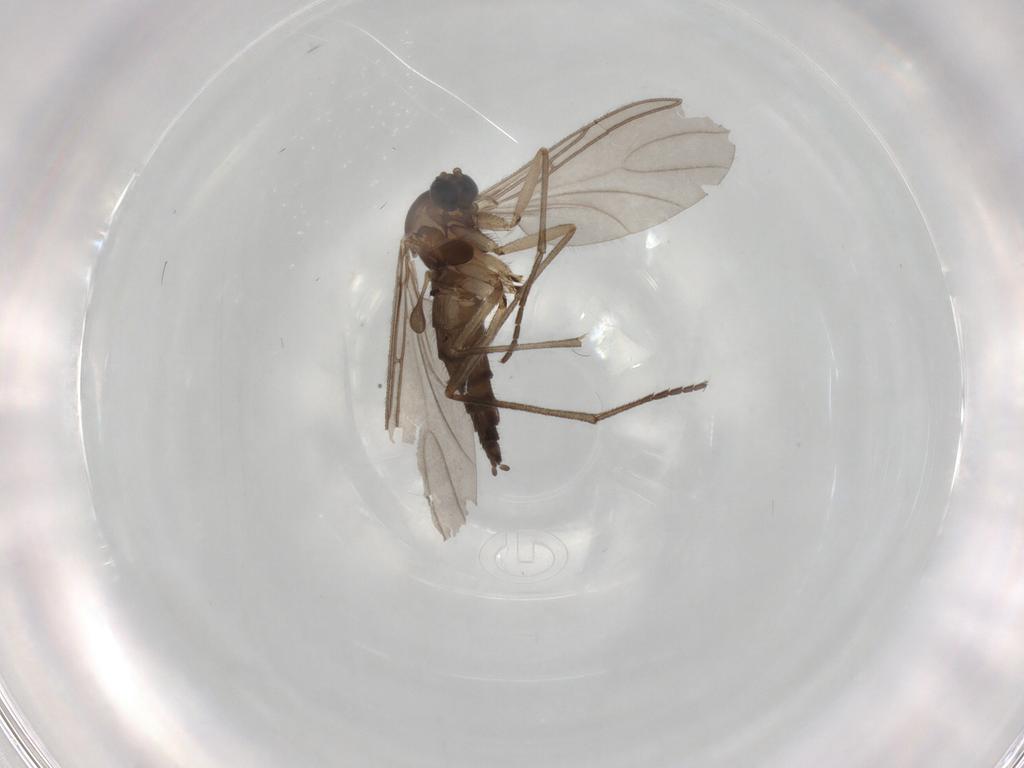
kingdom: Animalia
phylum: Arthropoda
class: Insecta
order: Diptera
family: Sciaridae
